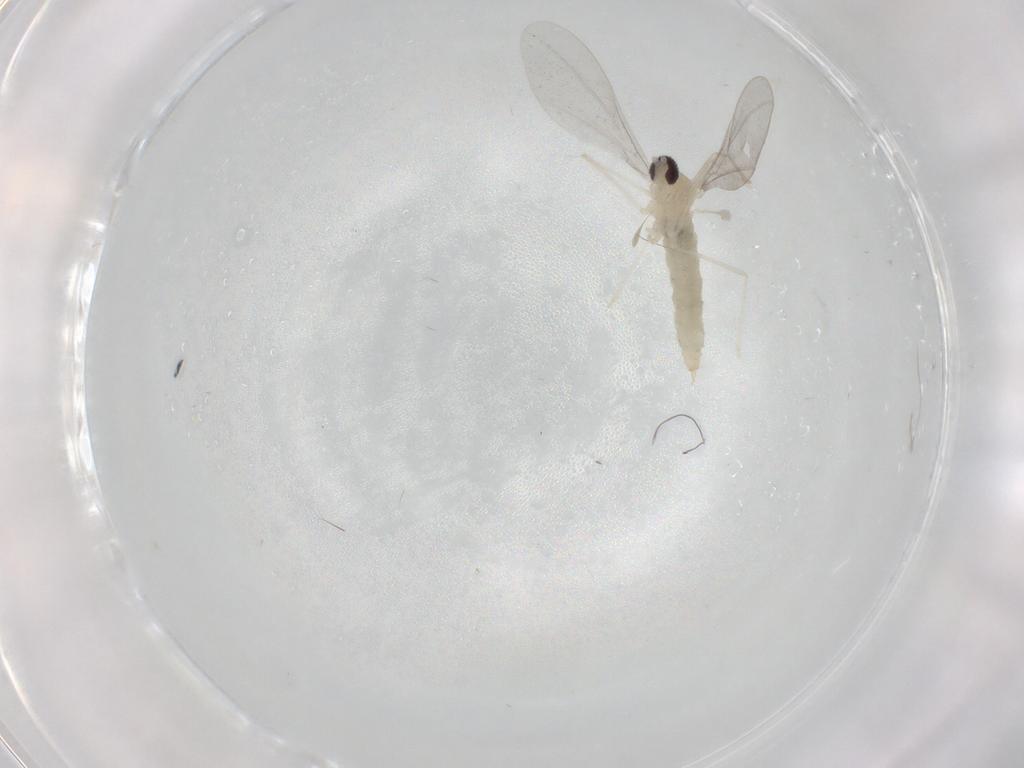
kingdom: Animalia
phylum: Arthropoda
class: Insecta
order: Diptera
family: Cecidomyiidae
